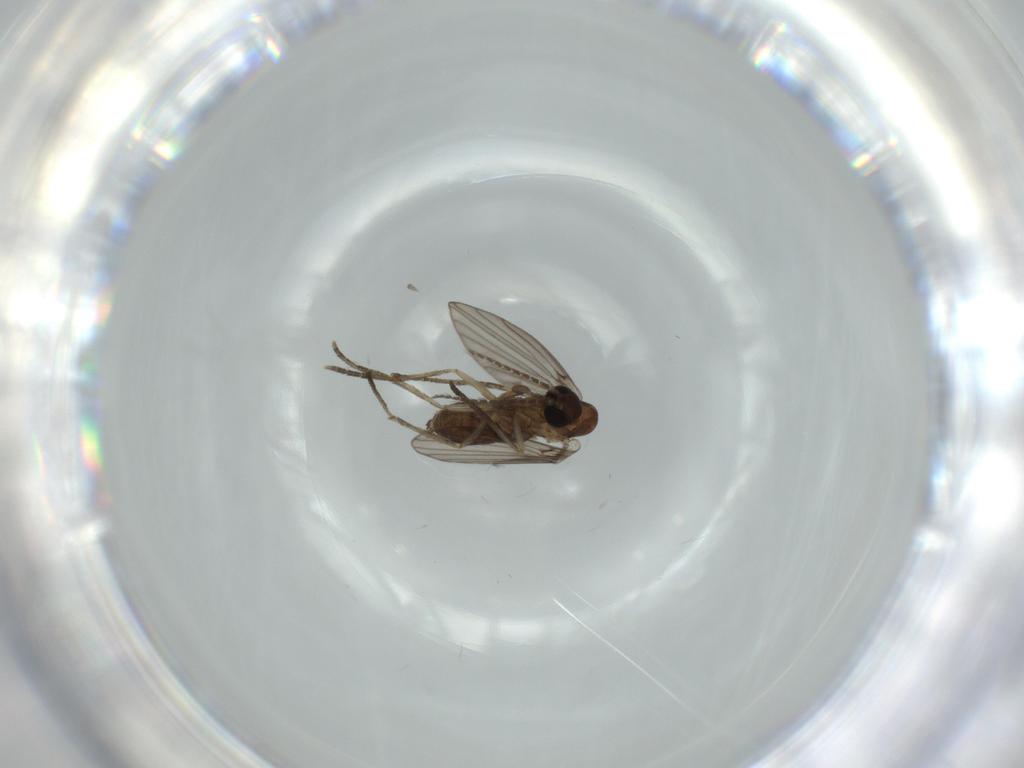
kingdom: Animalia
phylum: Arthropoda
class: Insecta
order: Diptera
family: Psychodidae
